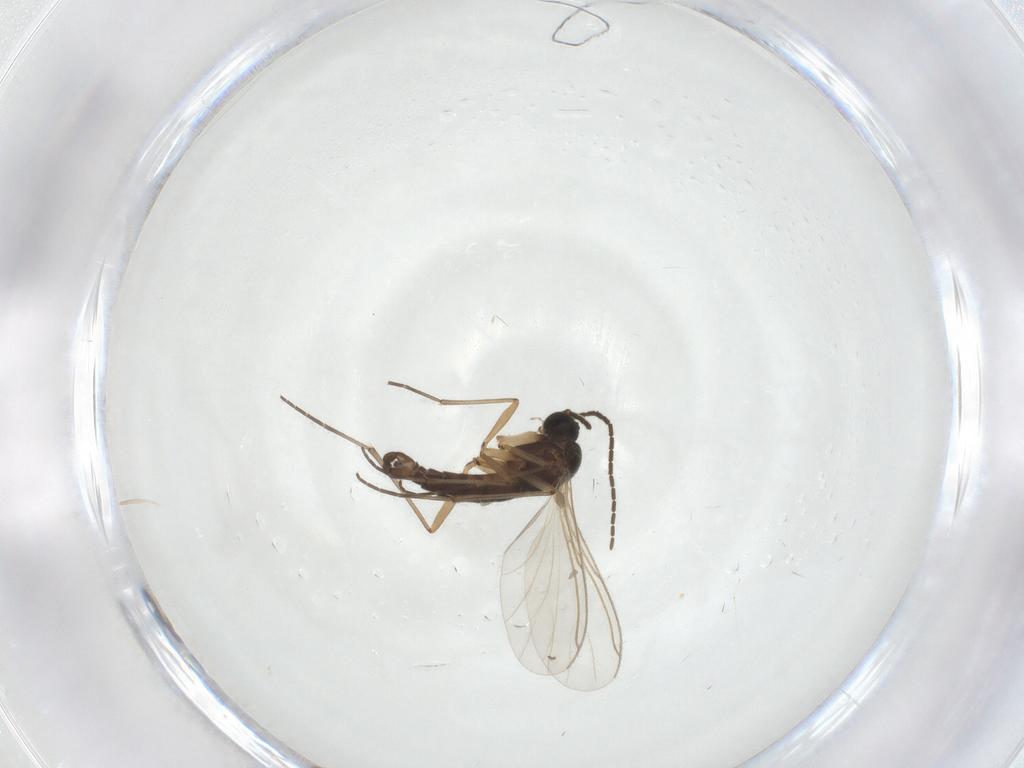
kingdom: Animalia
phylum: Arthropoda
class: Insecta
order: Diptera
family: Sciaridae
